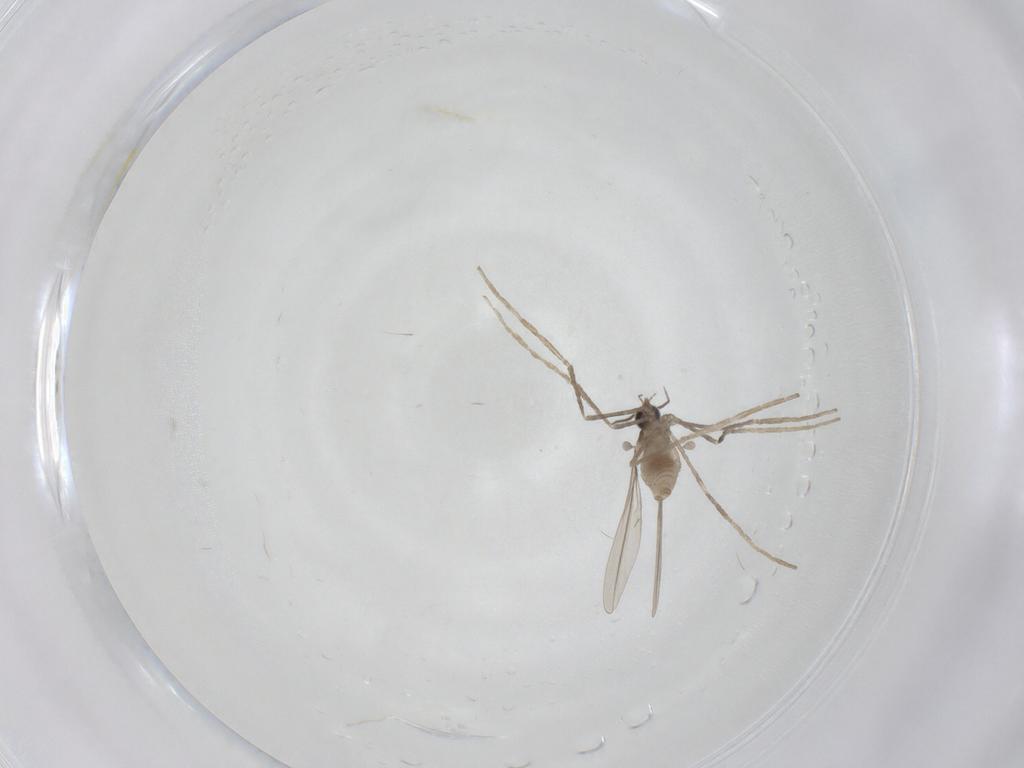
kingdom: Animalia
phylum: Arthropoda
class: Insecta
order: Diptera
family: Cecidomyiidae
